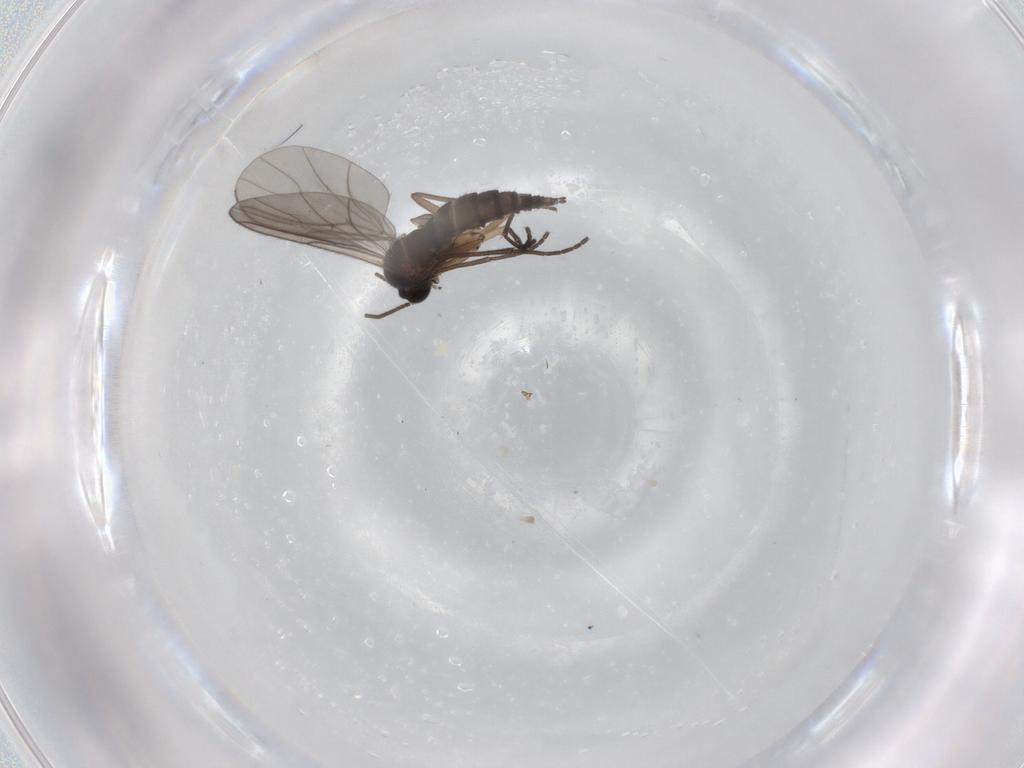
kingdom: Animalia
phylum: Arthropoda
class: Insecta
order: Diptera
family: Sciaridae
